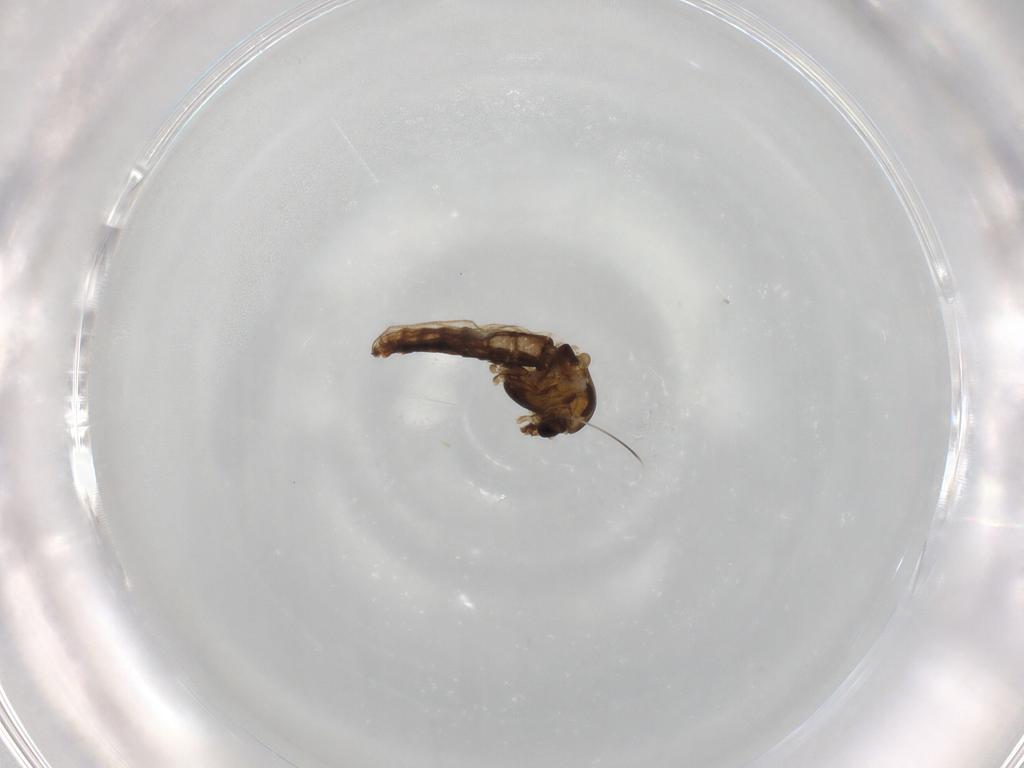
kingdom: Animalia
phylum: Arthropoda
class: Insecta
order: Diptera
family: Chironomidae
